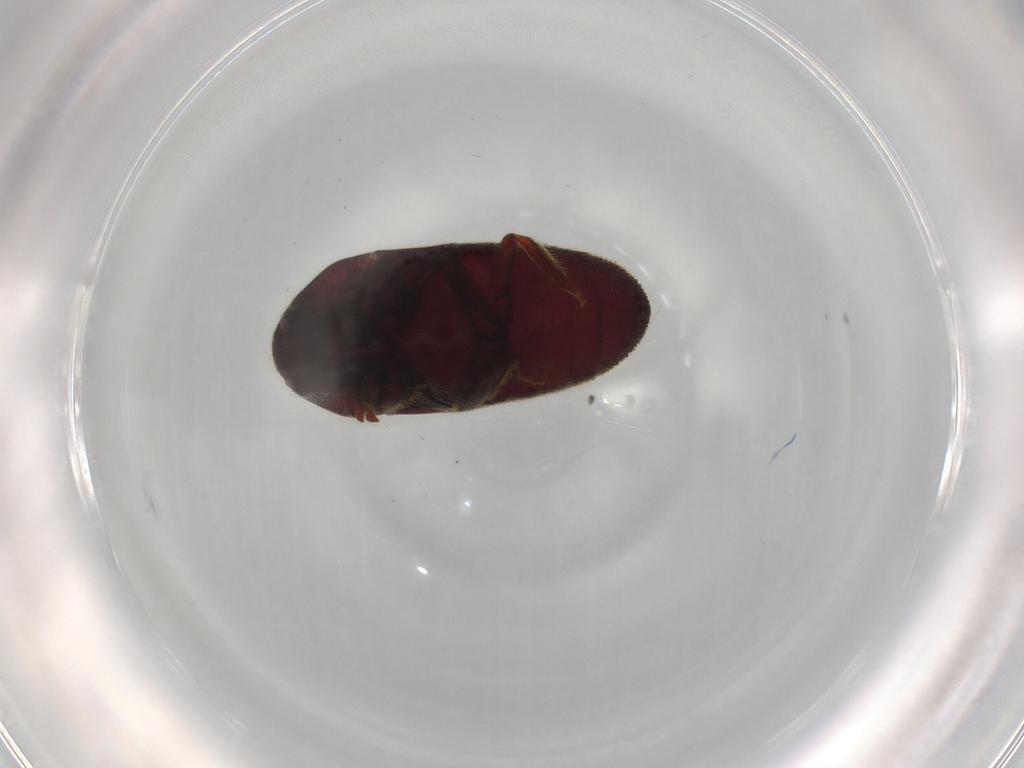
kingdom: Animalia
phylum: Arthropoda
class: Insecta
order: Coleoptera
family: Throscidae
